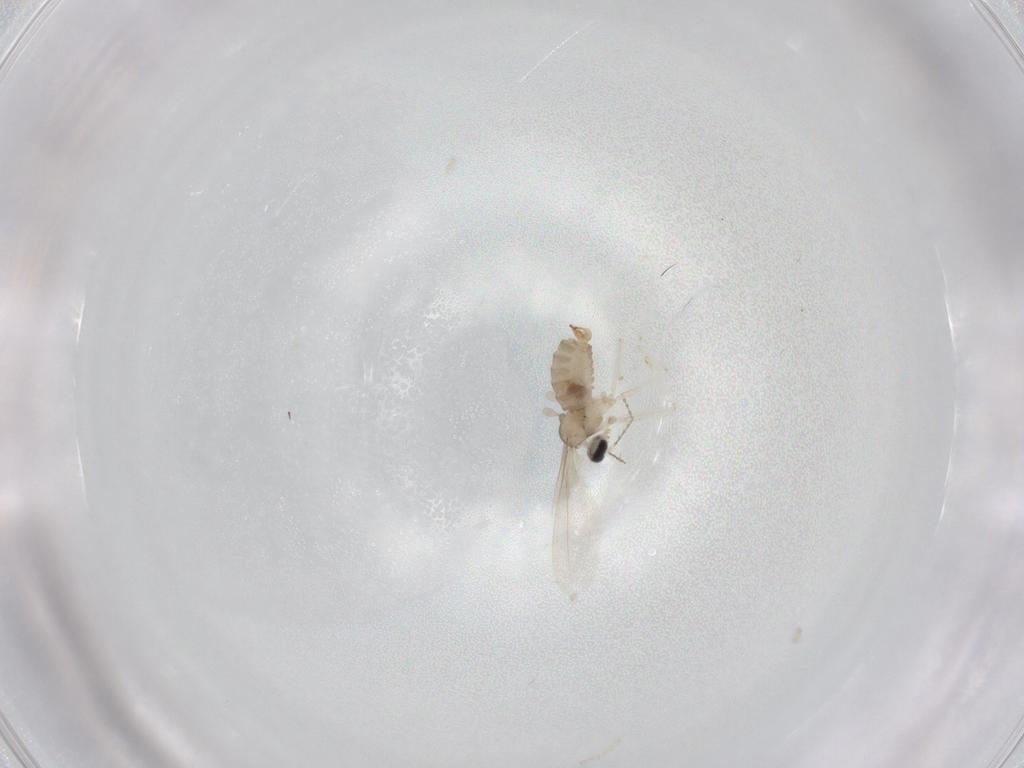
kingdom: Animalia
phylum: Arthropoda
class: Insecta
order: Diptera
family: Cecidomyiidae
